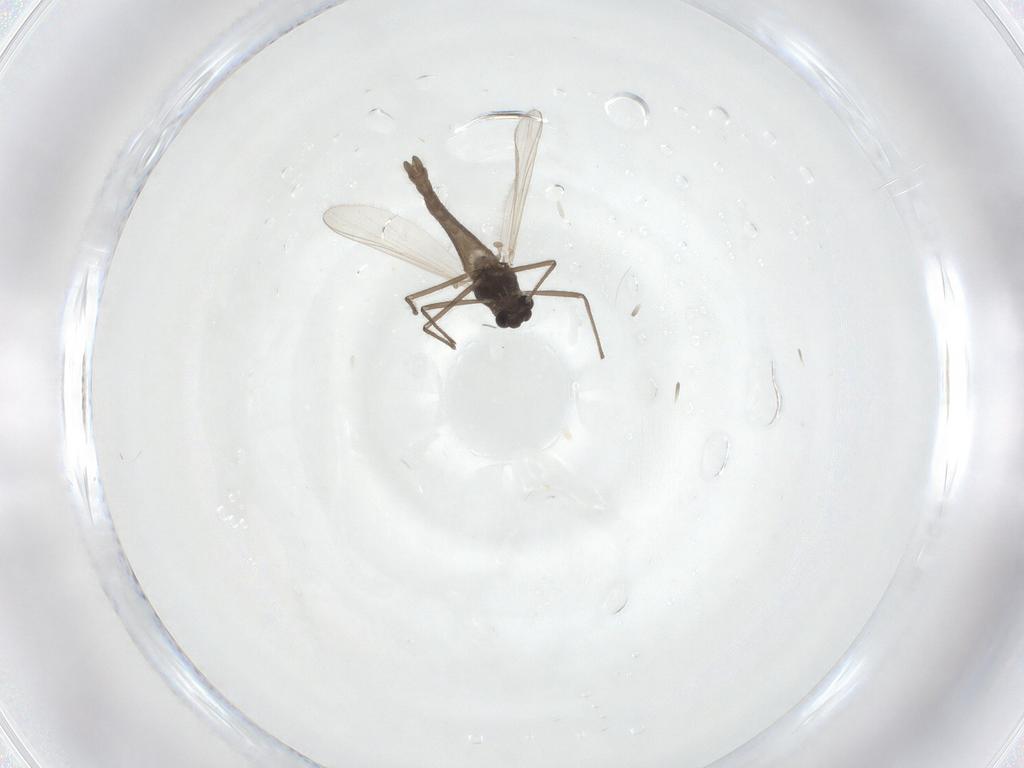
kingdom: Animalia
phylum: Arthropoda
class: Insecta
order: Diptera
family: Chironomidae
